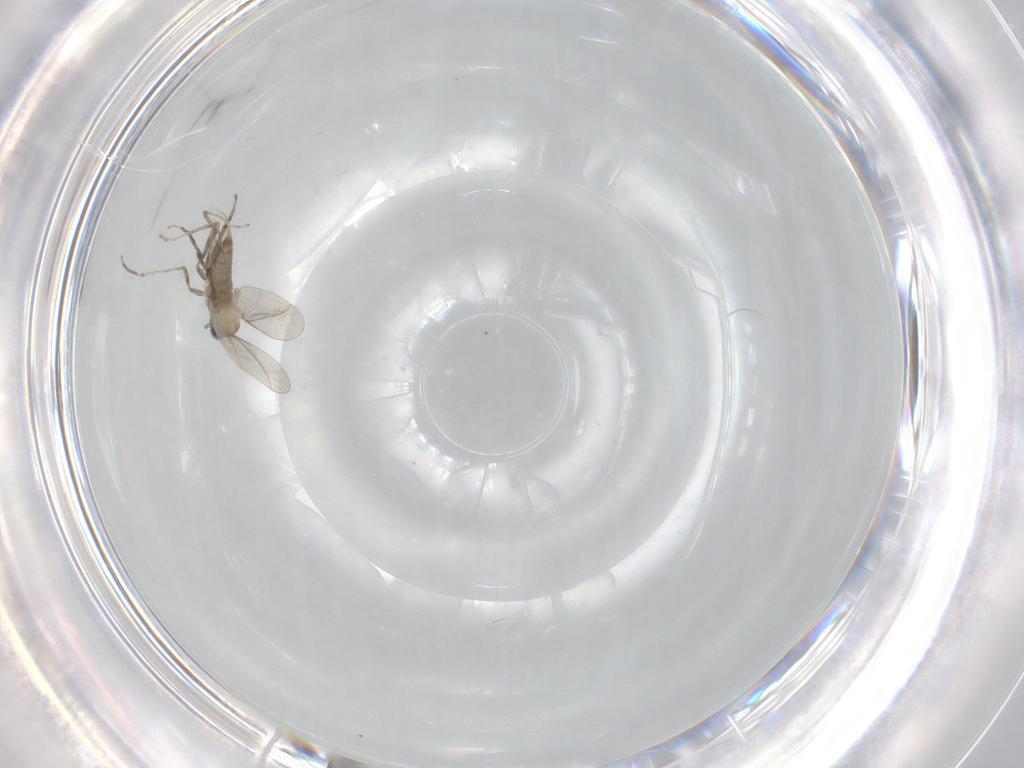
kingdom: Animalia
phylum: Arthropoda
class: Insecta
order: Diptera
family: Cecidomyiidae
